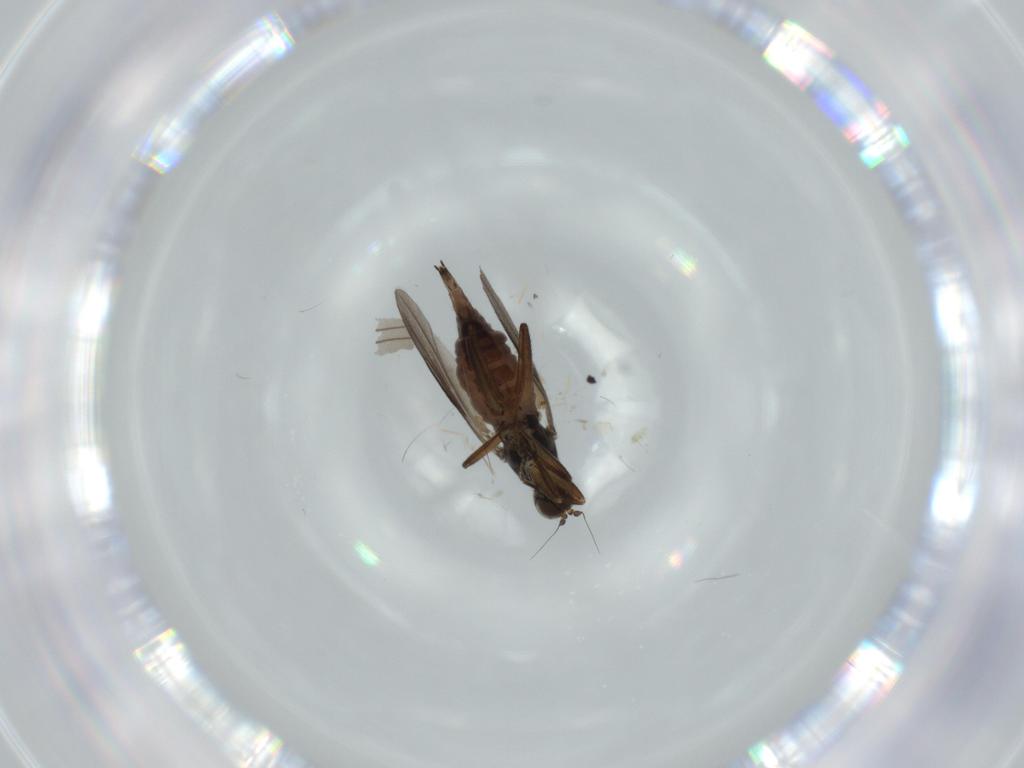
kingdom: Animalia
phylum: Arthropoda
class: Insecta
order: Diptera
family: Hybotidae
